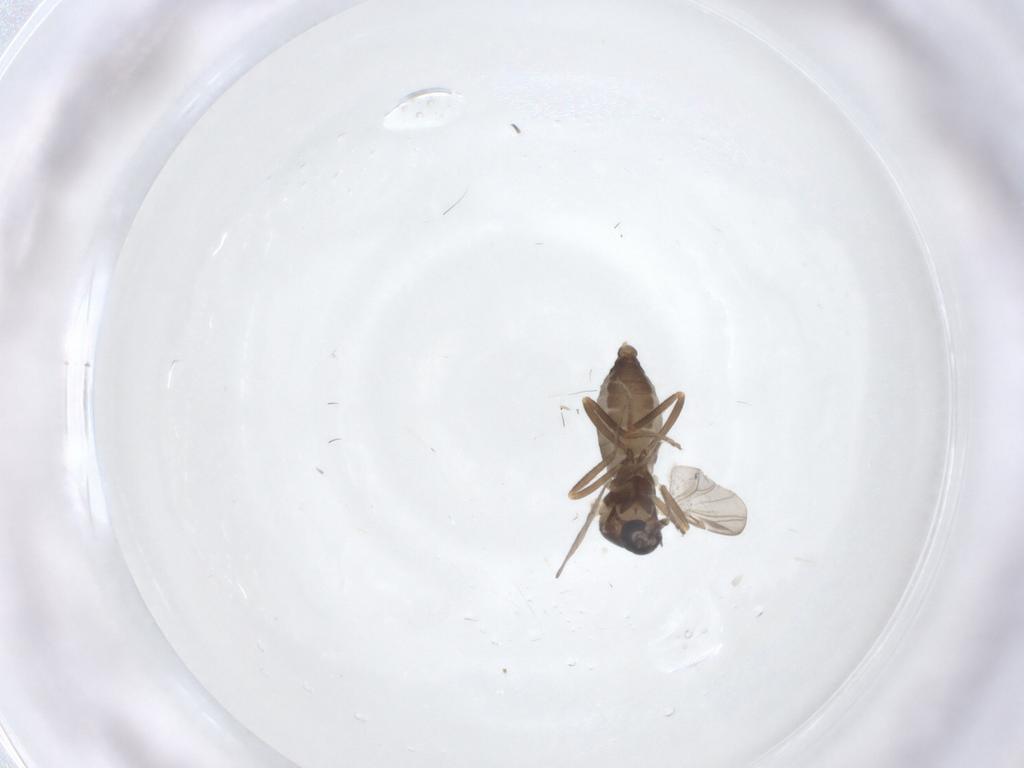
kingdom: Animalia
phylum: Arthropoda
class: Insecta
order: Diptera
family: Ceratopogonidae
